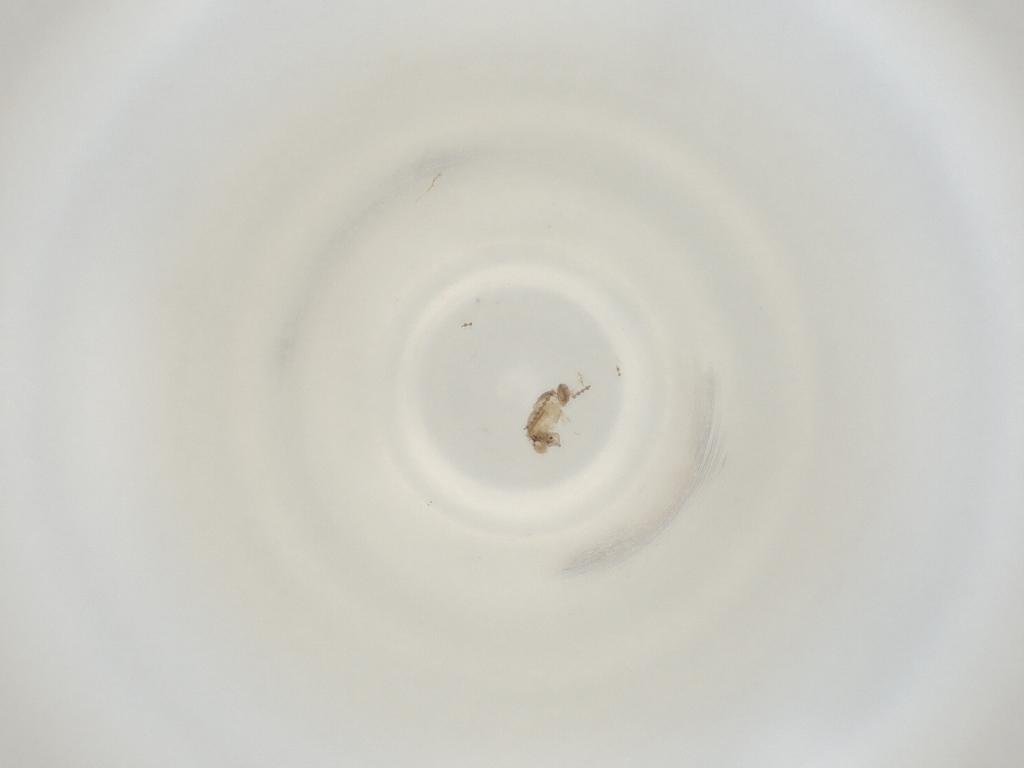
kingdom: Animalia
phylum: Arthropoda
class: Insecta
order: Diptera
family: Cecidomyiidae
